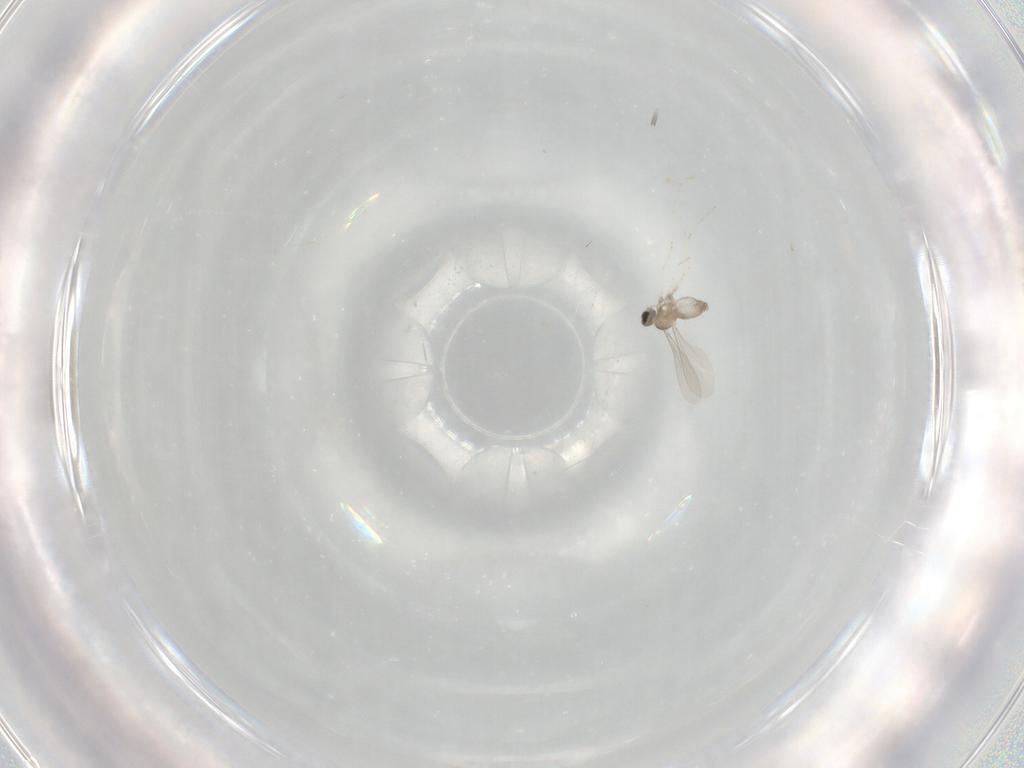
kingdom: Animalia
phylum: Arthropoda
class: Insecta
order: Diptera
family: Cecidomyiidae
